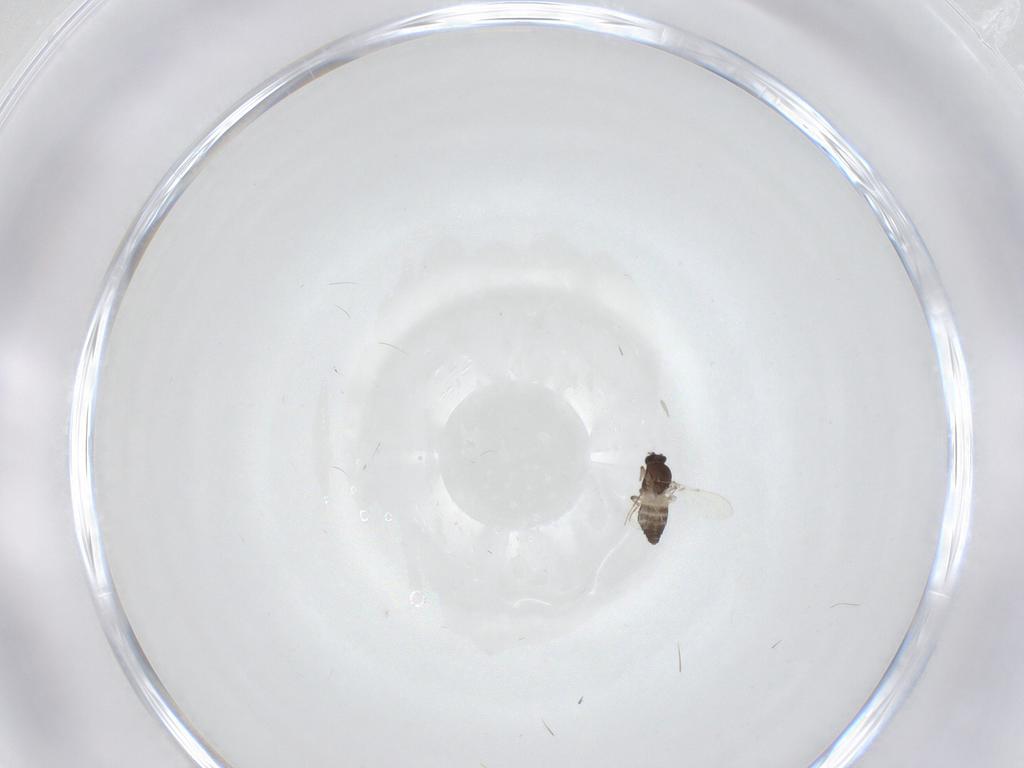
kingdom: Animalia
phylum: Arthropoda
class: Insecta
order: Diptera
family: Ceratopogonidae
